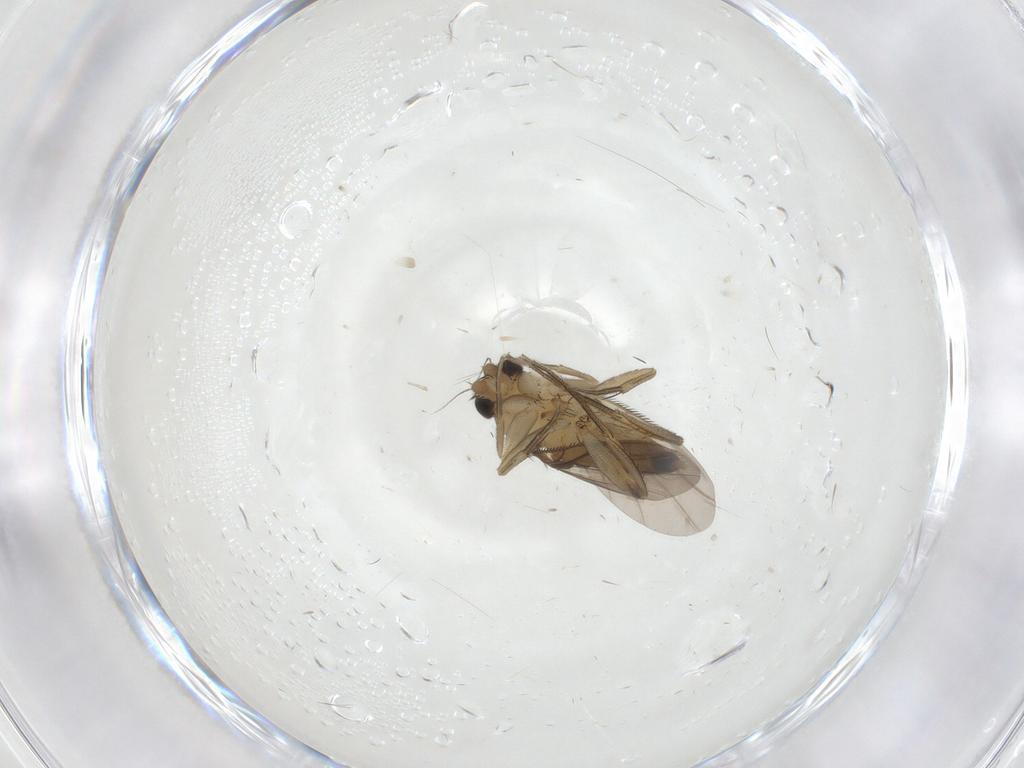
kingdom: Animalia
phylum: Arthropoda
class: Insecta
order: Diptera
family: Phoridae
